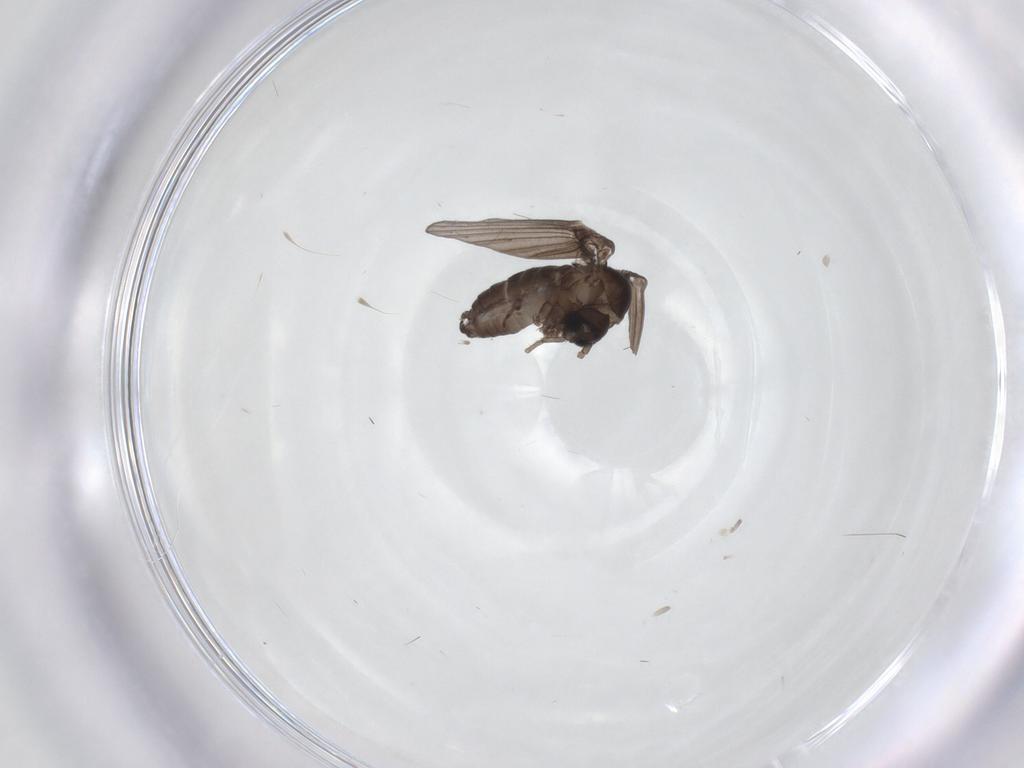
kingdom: Animalia
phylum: Arthropoda
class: Insecta
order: Diptera
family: Psychodidae
